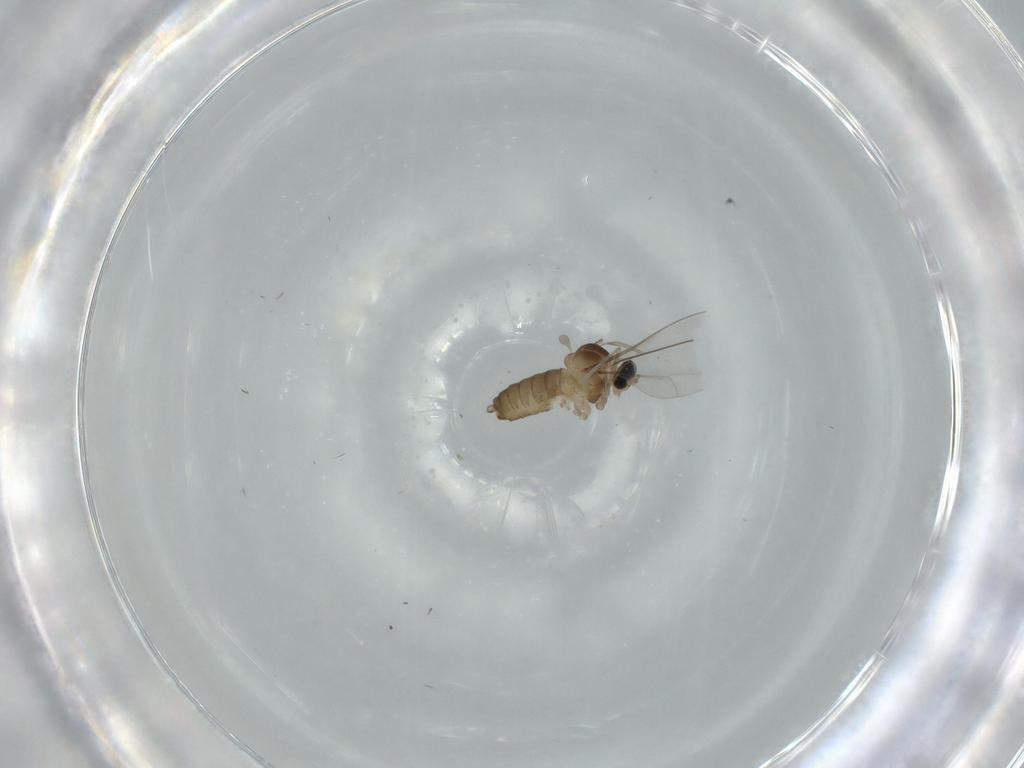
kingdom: Animalia
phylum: Arthropoda
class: Insecta
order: Diptera
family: Cecidomyiidae
